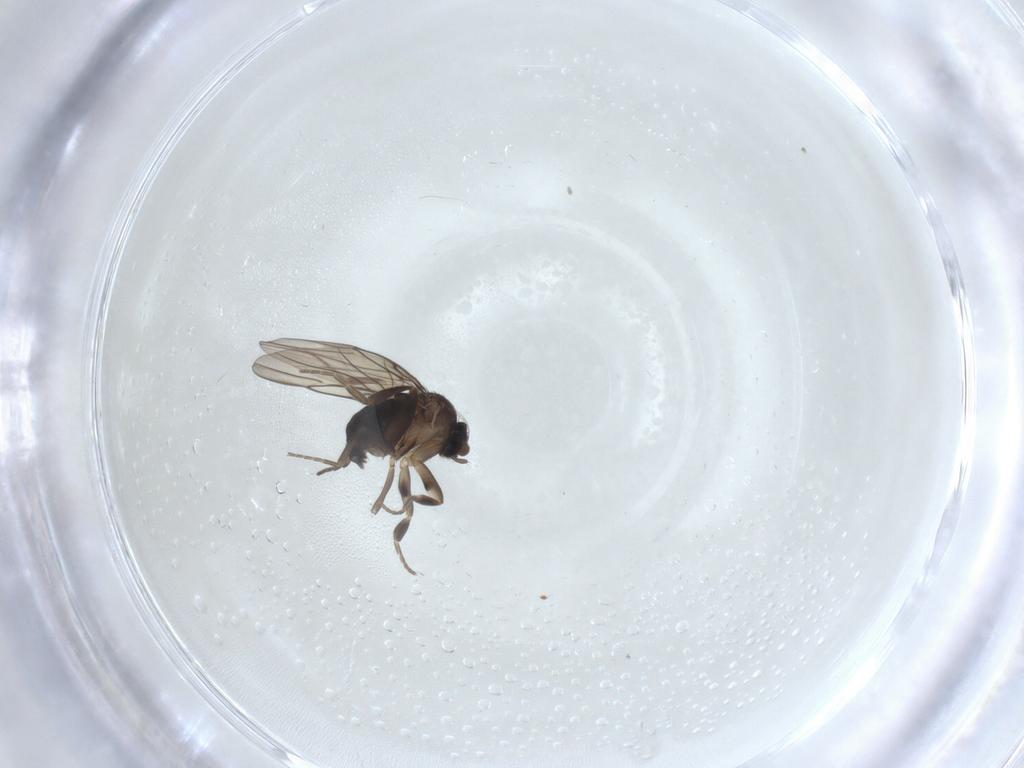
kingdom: Animalia
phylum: Arthropoda
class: Insecta
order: Diptera
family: Phoridae
